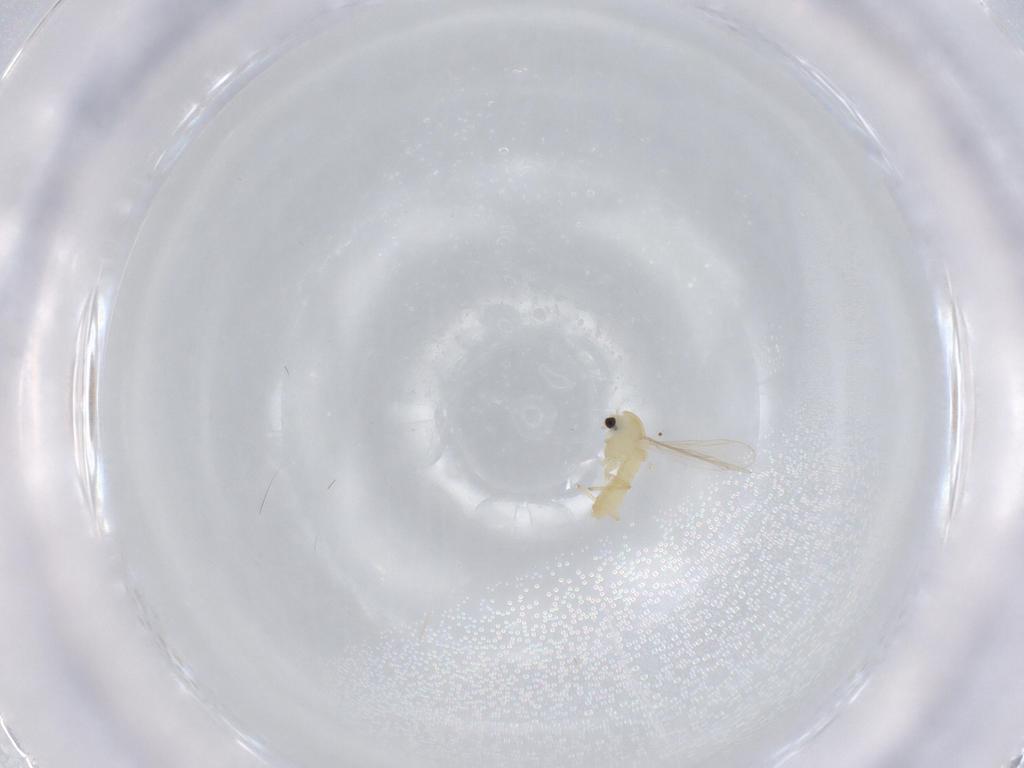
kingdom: Animalia
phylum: Arthropoda
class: Insecta
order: Diptera
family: Chironomidae
